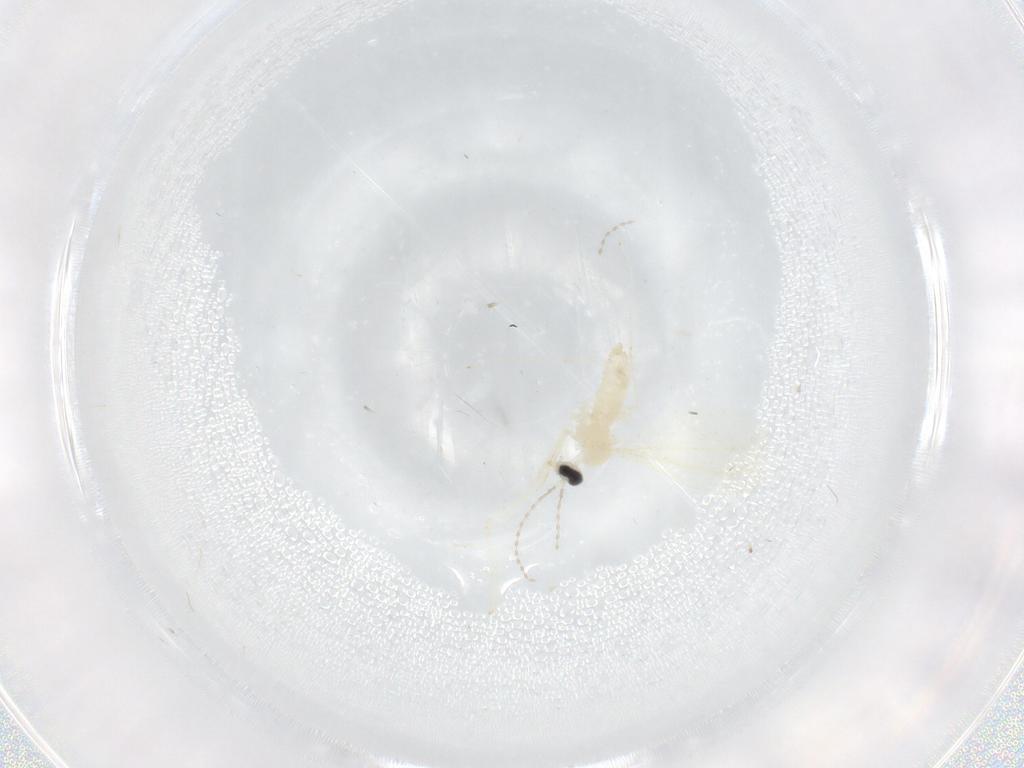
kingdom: Animalia
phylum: Arthropoda
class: Insecta
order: Diptera
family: Cecidomyiidae
